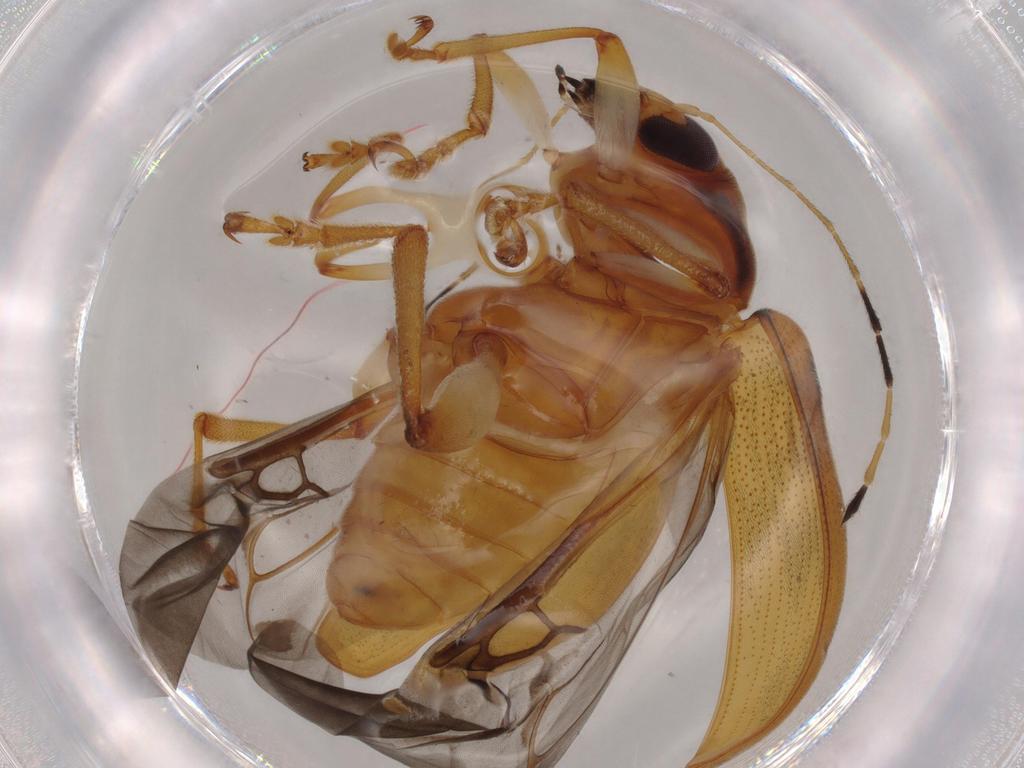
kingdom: Animalia
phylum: Arthropoda
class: Insecta
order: Coleoptera
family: Chrysomelidae
